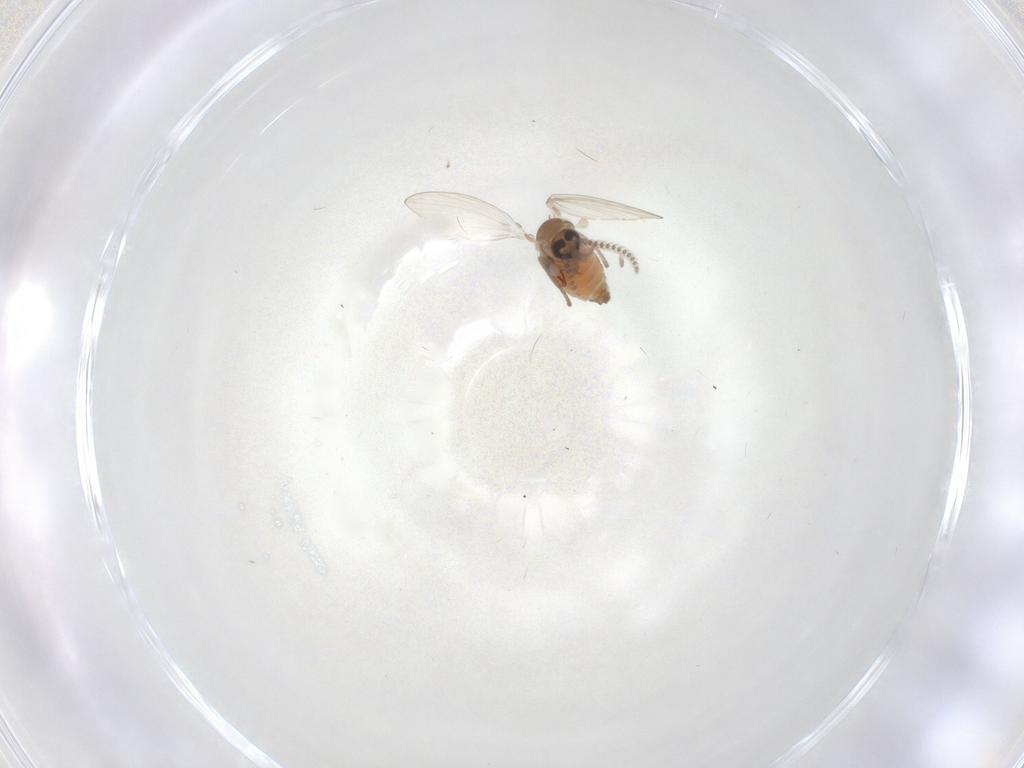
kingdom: Animalia
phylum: Arthropoda
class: Insecta
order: Diptera
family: Psychodidae
